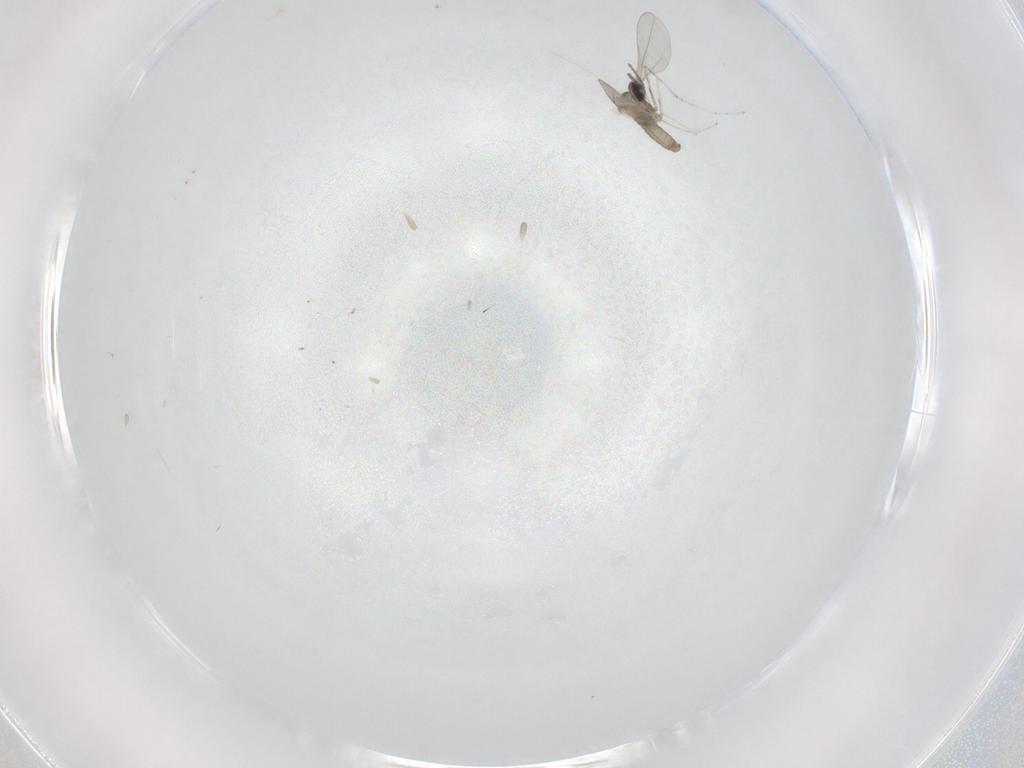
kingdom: Animalia
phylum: Arthropoda
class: Insecta
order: Diptera
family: Cecidomyiidae
